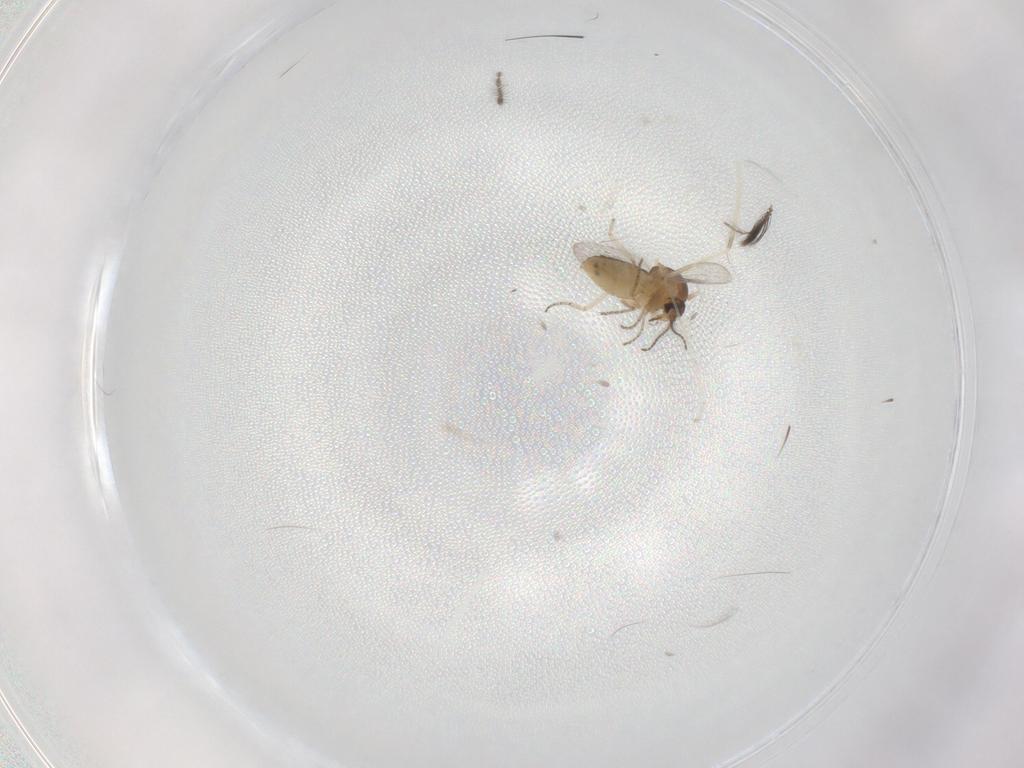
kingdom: Animalia
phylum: Arthropoda
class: Insecta
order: Diptera
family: Ceratopogonidae
